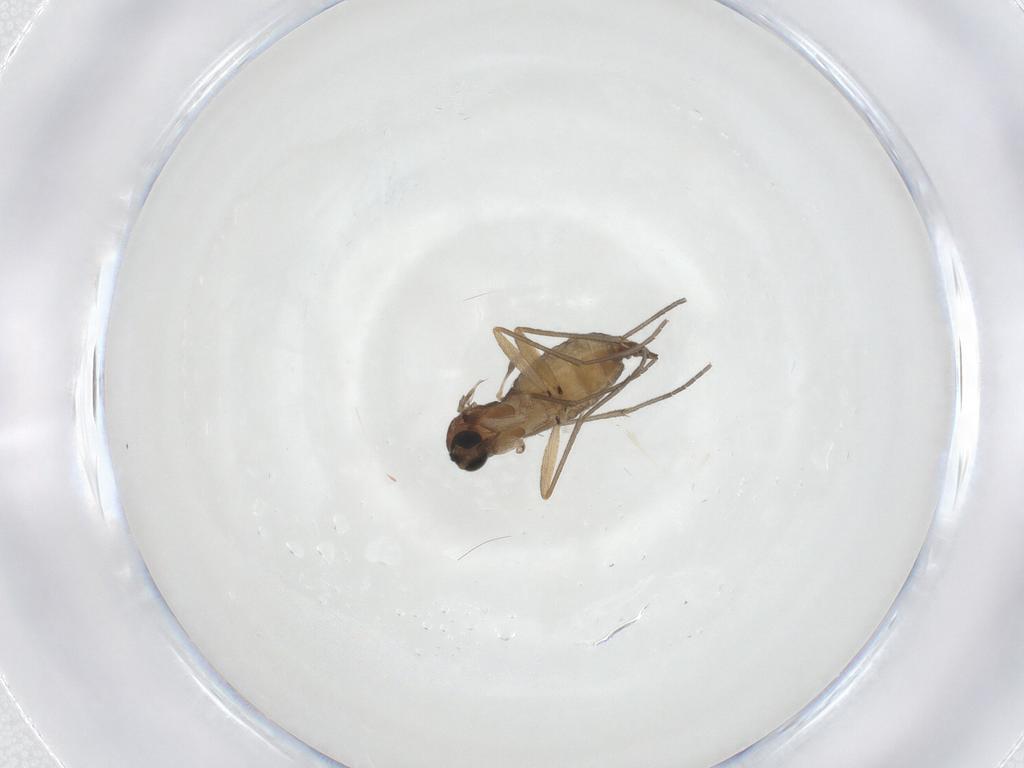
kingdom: Animalia
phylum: Arthropoda
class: Insecta
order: Diptera
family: Sciaridae
